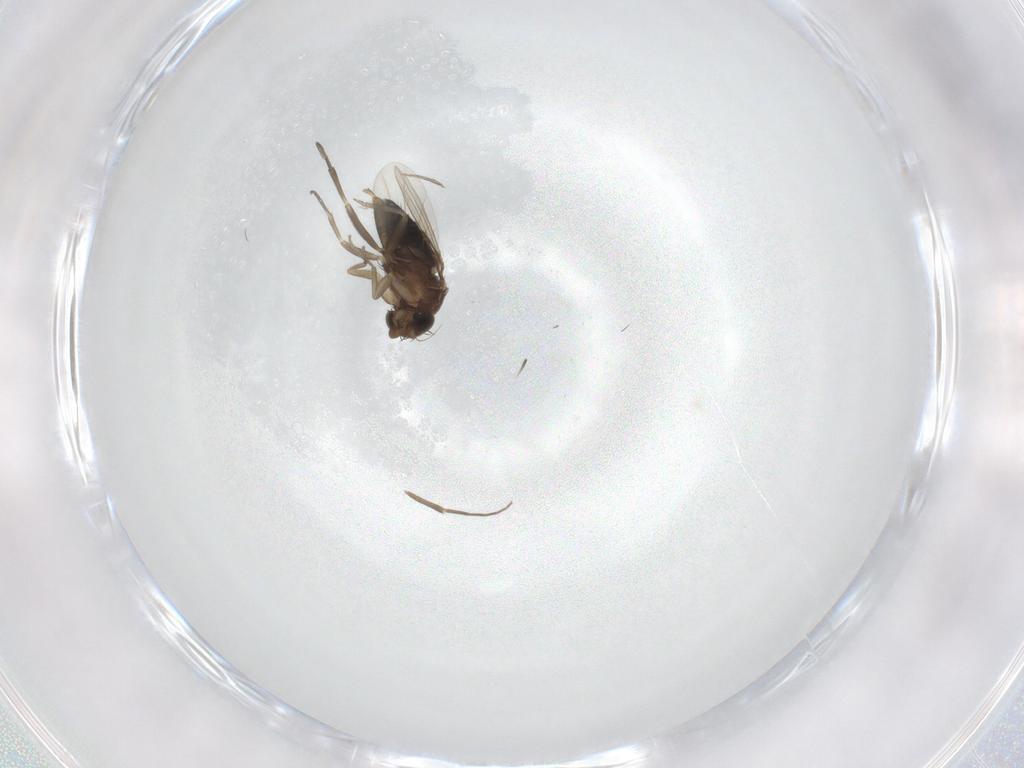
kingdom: Animalia
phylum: Arthropoda
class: Insecta
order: Diptera
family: Phoridae
